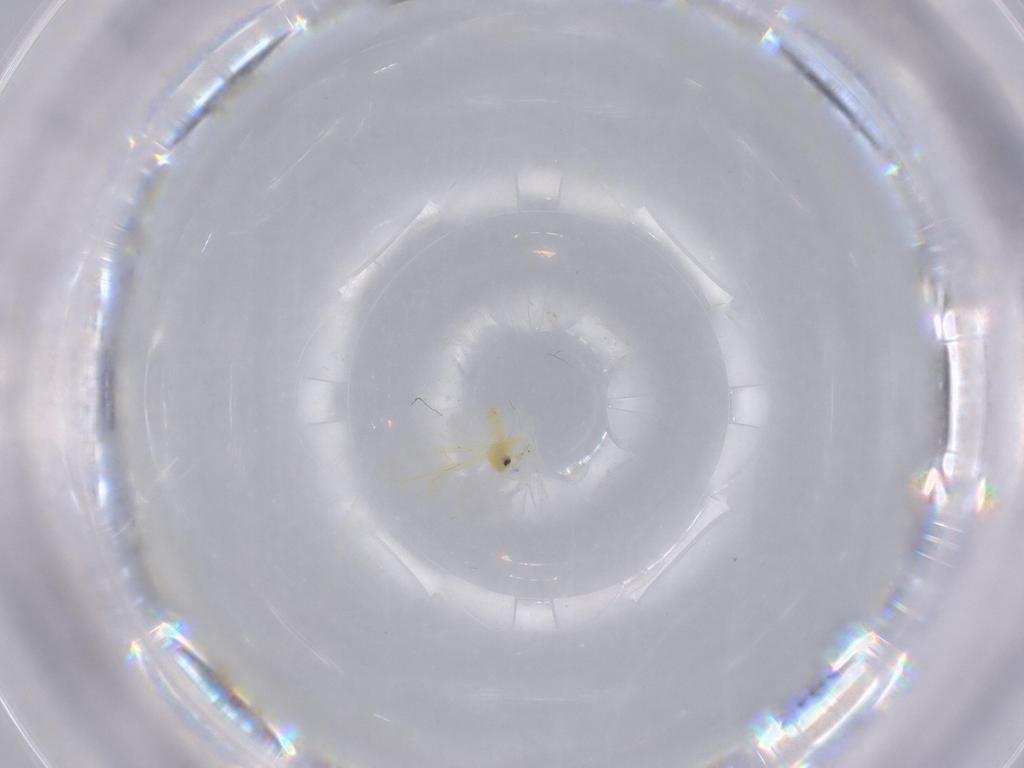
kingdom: Animalia
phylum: Arthropoda
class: Insecta
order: Hemiptera
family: Aleyrodidae
